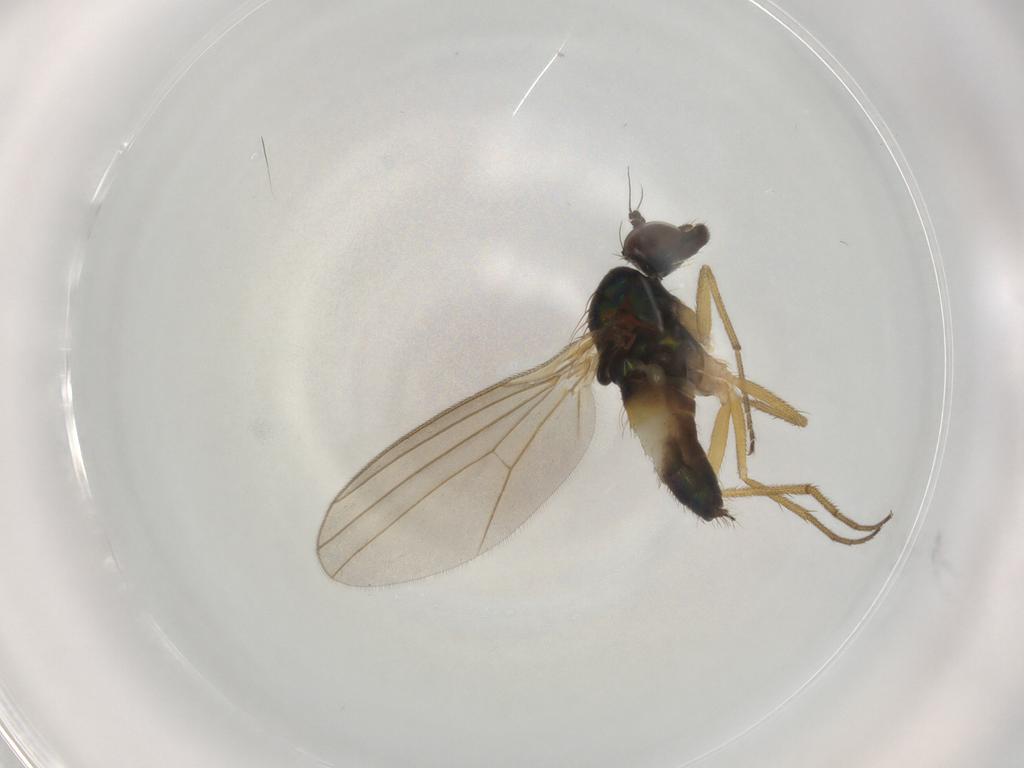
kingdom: Animalia
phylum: Arthropoda
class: Insecta
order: Diptera
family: Dolichopodidae
